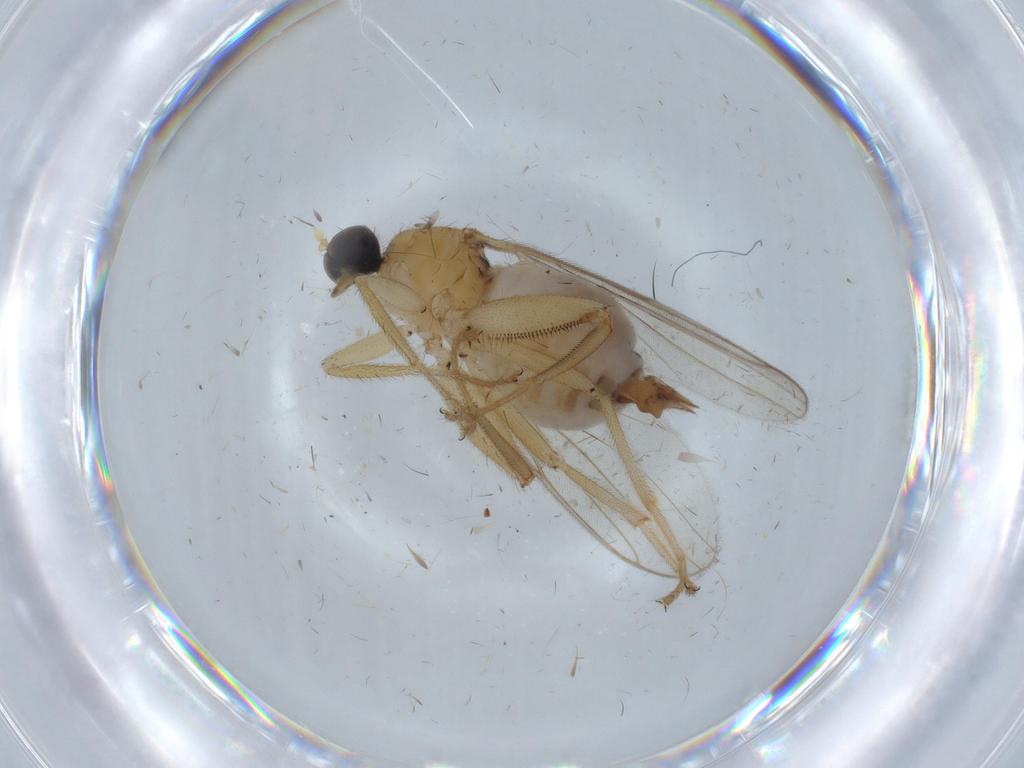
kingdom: Animalia
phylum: Arthropoda
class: Insecta
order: Diptera
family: Hybotidae
